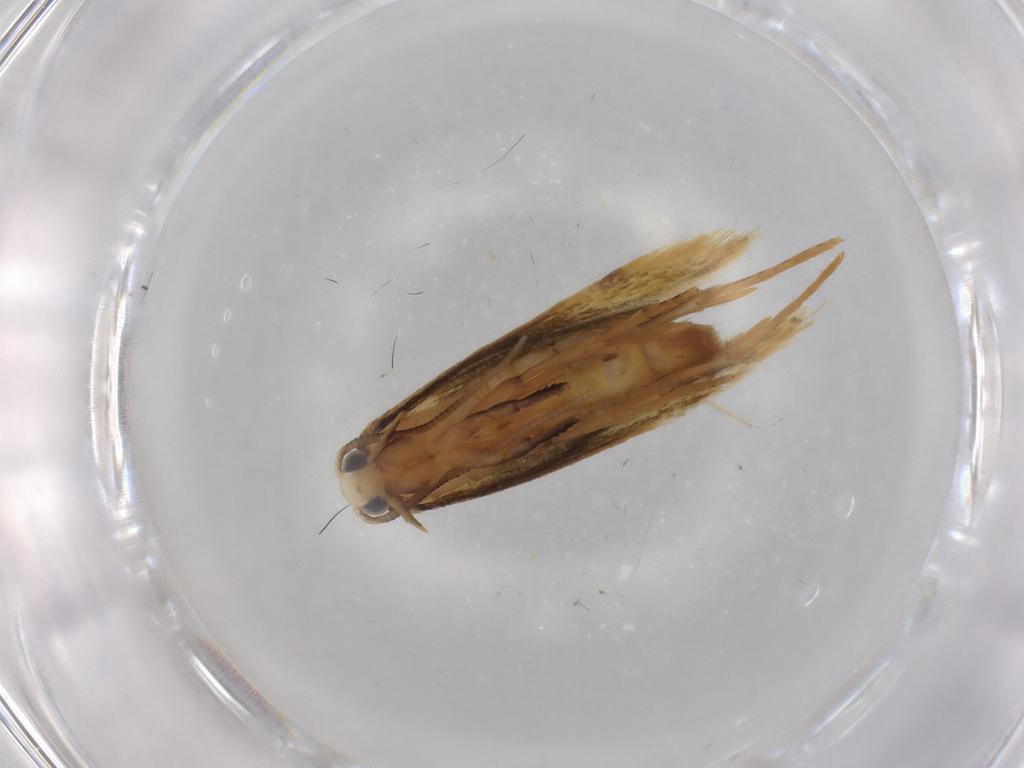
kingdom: Animalia
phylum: Arthropoda
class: Insecta
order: Lepidoptera
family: Tineidae
